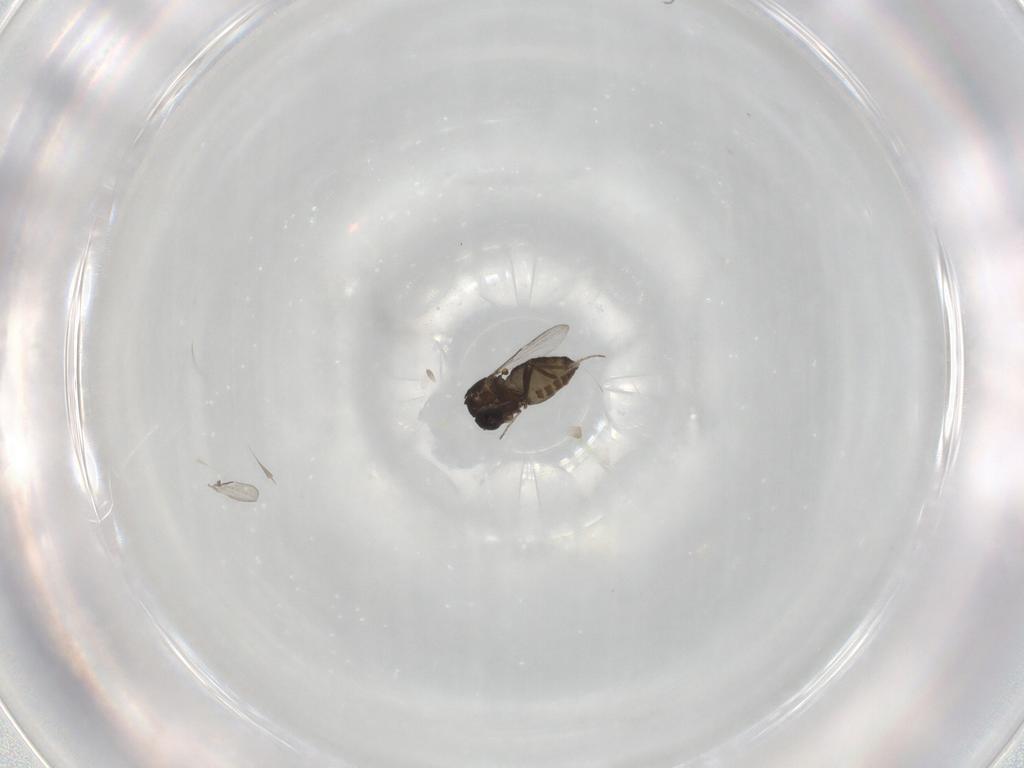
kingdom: Animalia
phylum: Arthropoda
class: Insecta
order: Diptera
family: Ceratopogonidae
